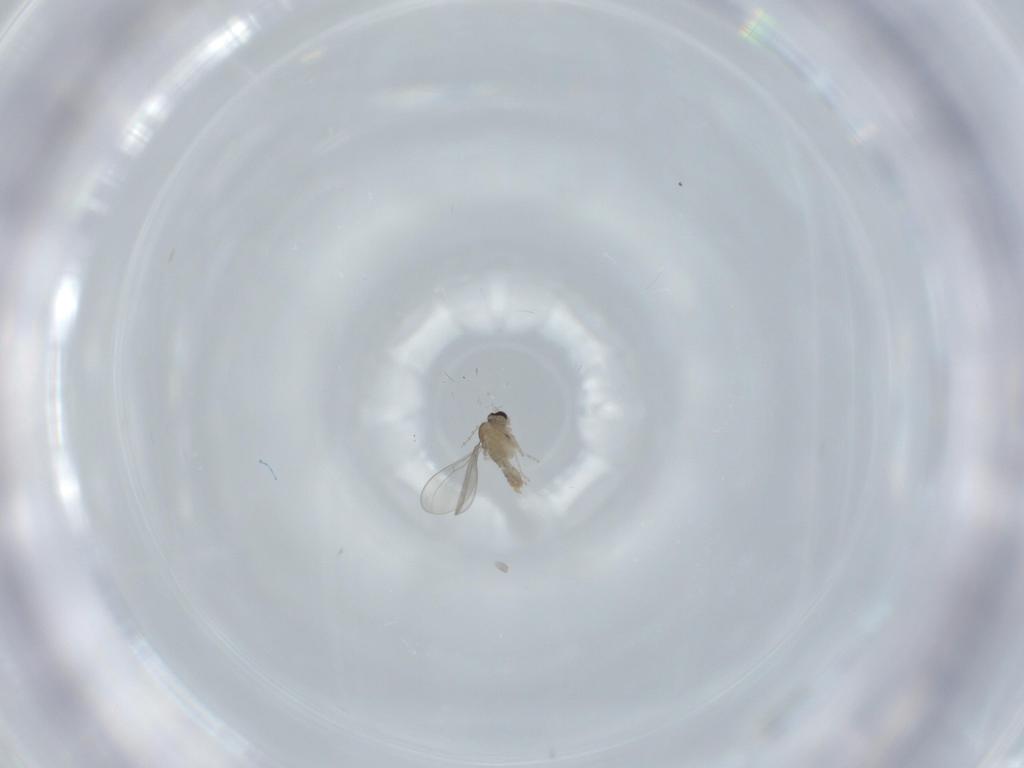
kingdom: Animalia
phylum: Arthropoda
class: Insecta
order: Diptera
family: Cecidomyiidae
